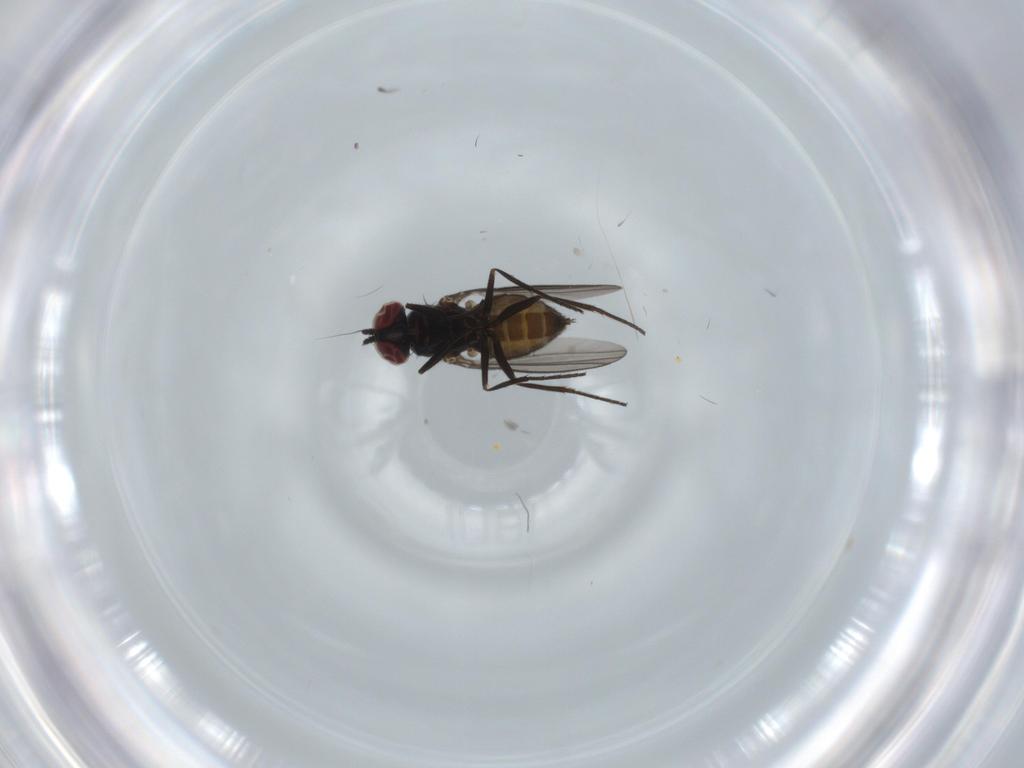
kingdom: Animalia
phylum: Arthropoda
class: Insecta
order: Diptera
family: Dolichopodidae
